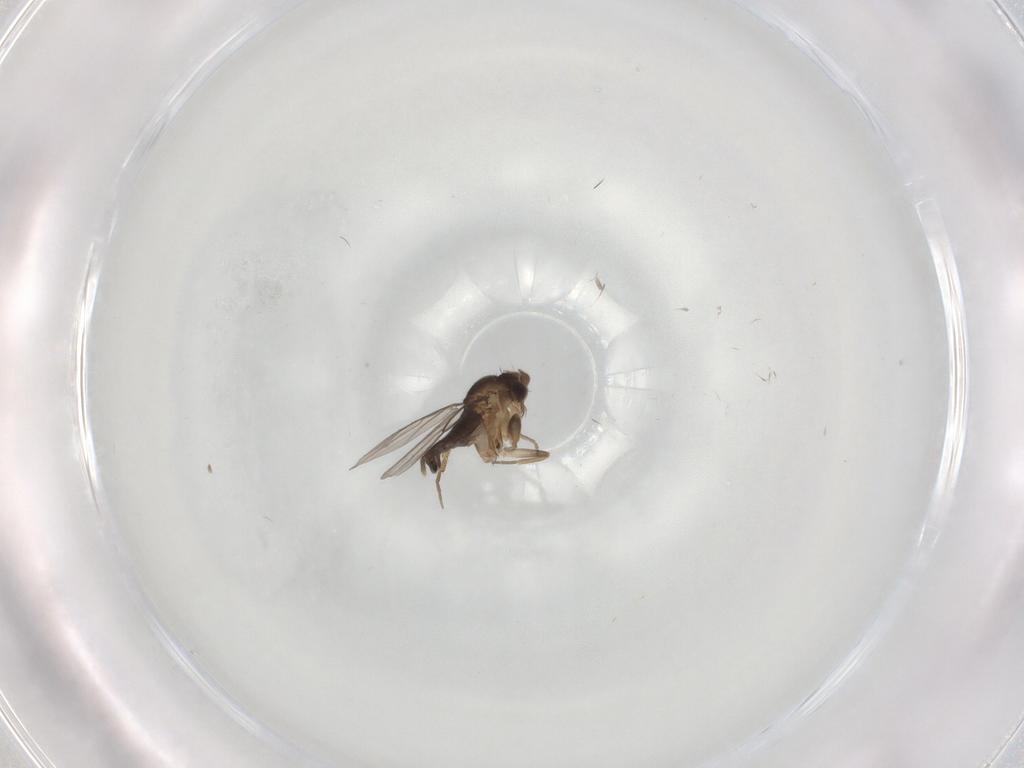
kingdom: Animalia
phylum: Arthropoda
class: Insecta
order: Diptera
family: Phoridae
